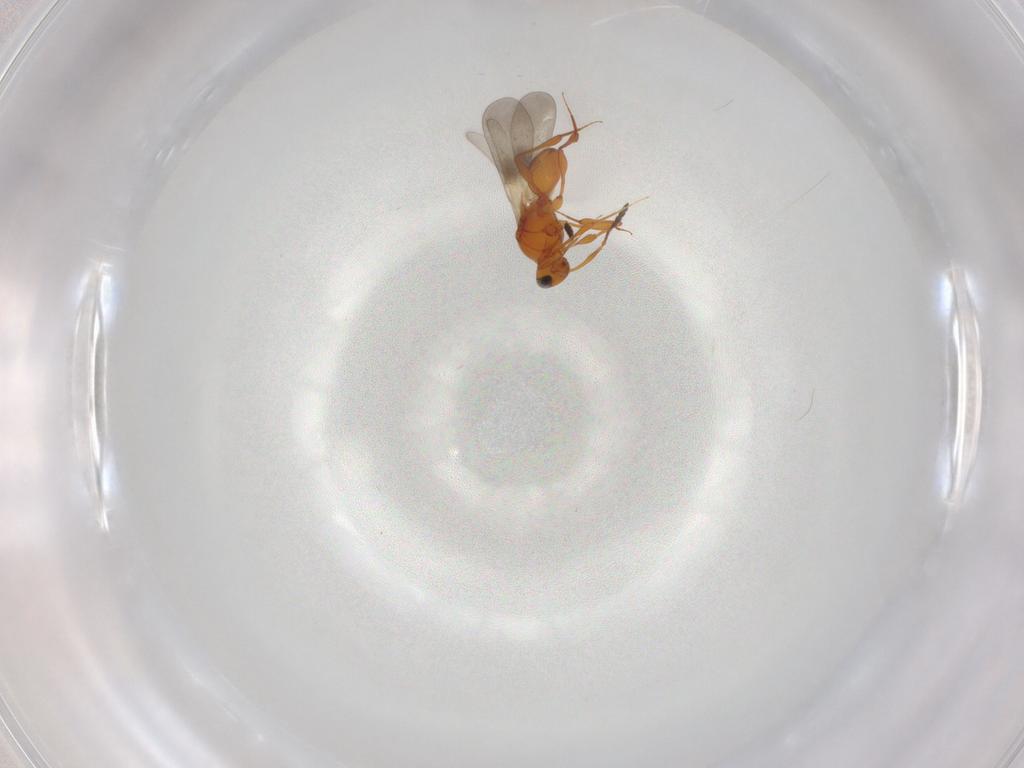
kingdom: Animalia
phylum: Arthropoda
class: Insecta
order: Hymenoptera
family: Platygastridae
